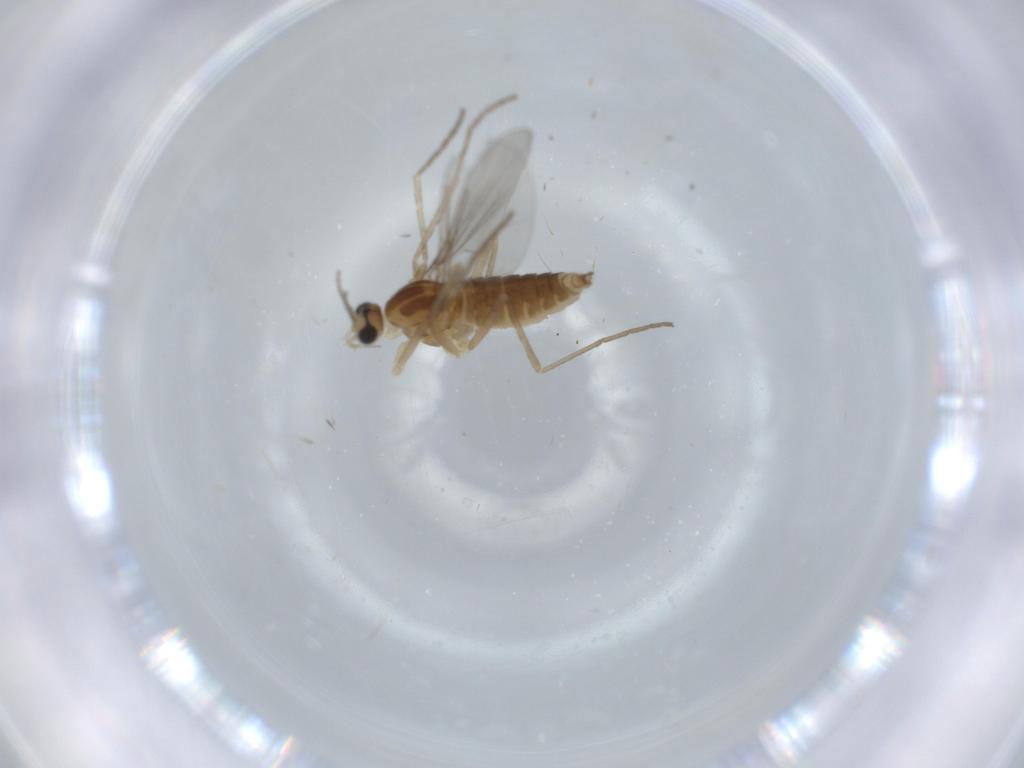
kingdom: Animalia
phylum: Arthropoda
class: Insecta
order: Diptera
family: Cecidomyiidae
